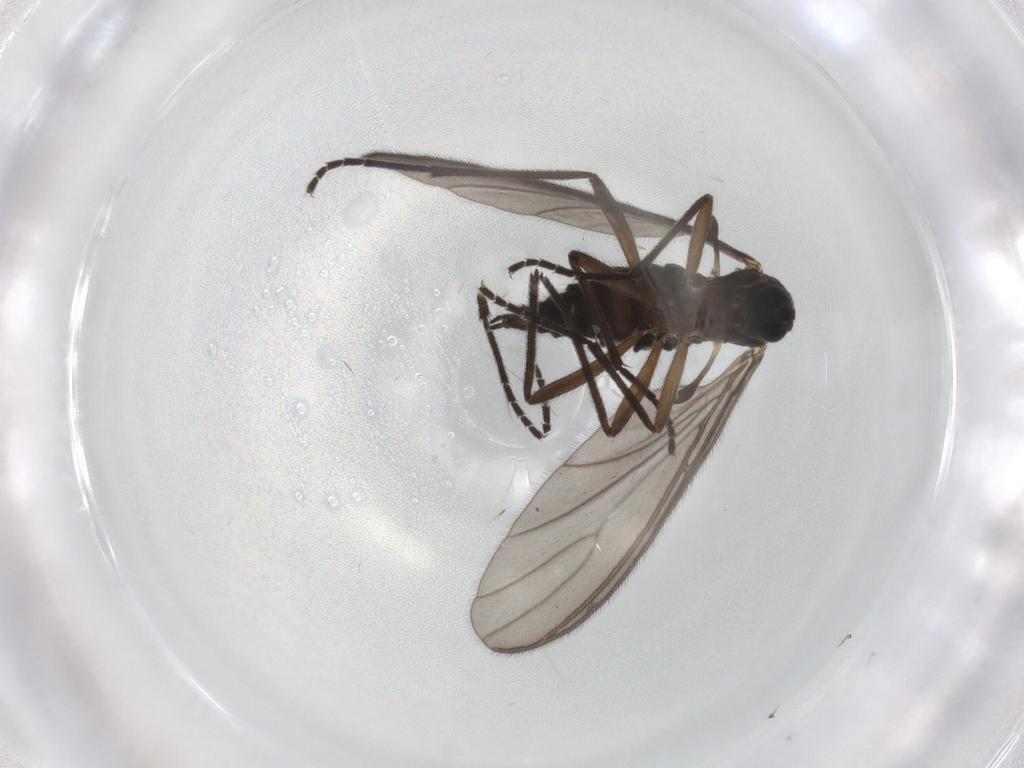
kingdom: Animalia
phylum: Arthropoda
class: Insecta
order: Diptera
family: Sciaridae
